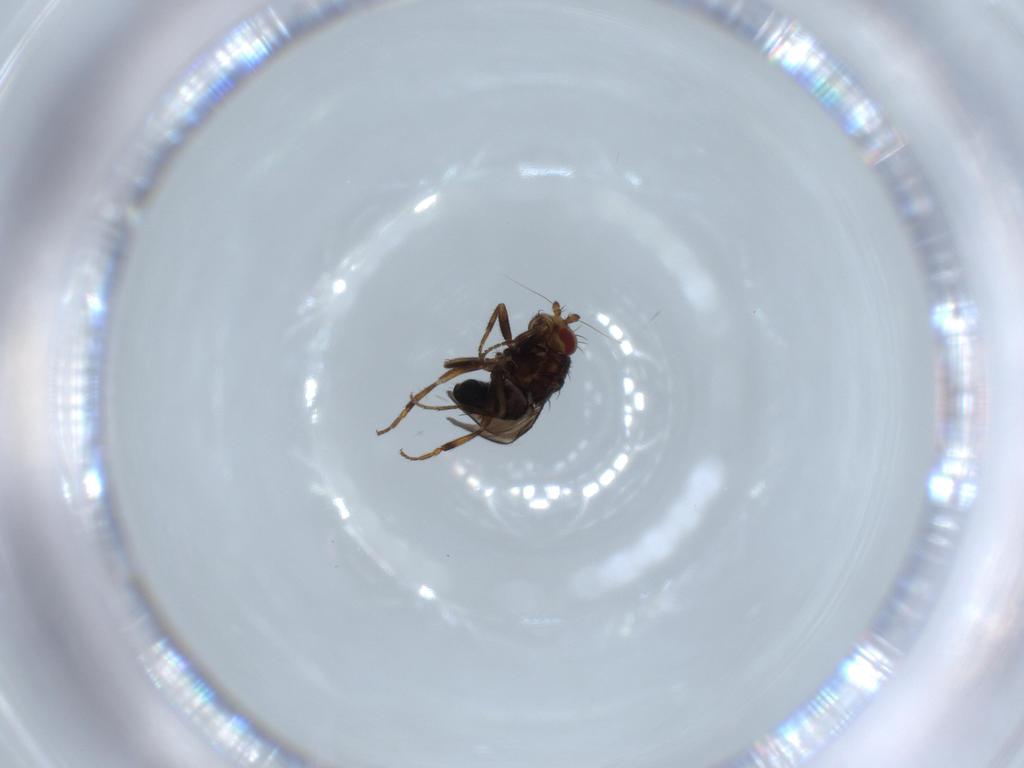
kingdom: Animalia
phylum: Arthropoda
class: Insecta
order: Diptera
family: Sphaeroceridae
